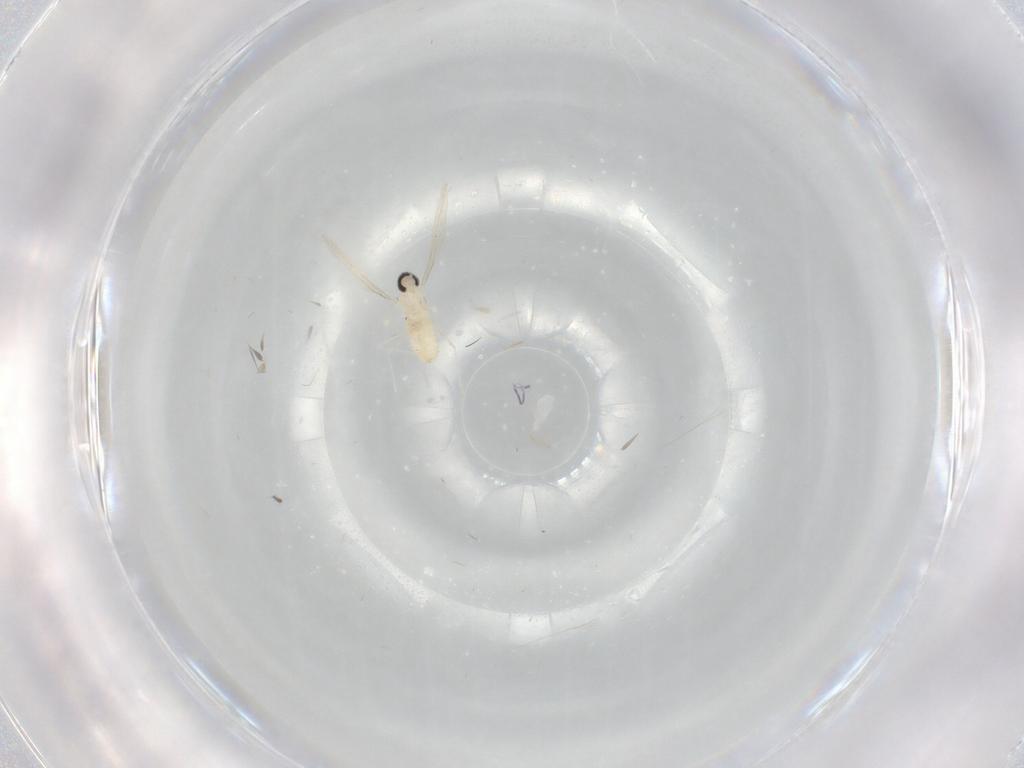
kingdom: Animalia
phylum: Arthropoda
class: Insecta
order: Diptera
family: Cecidomyiidae
